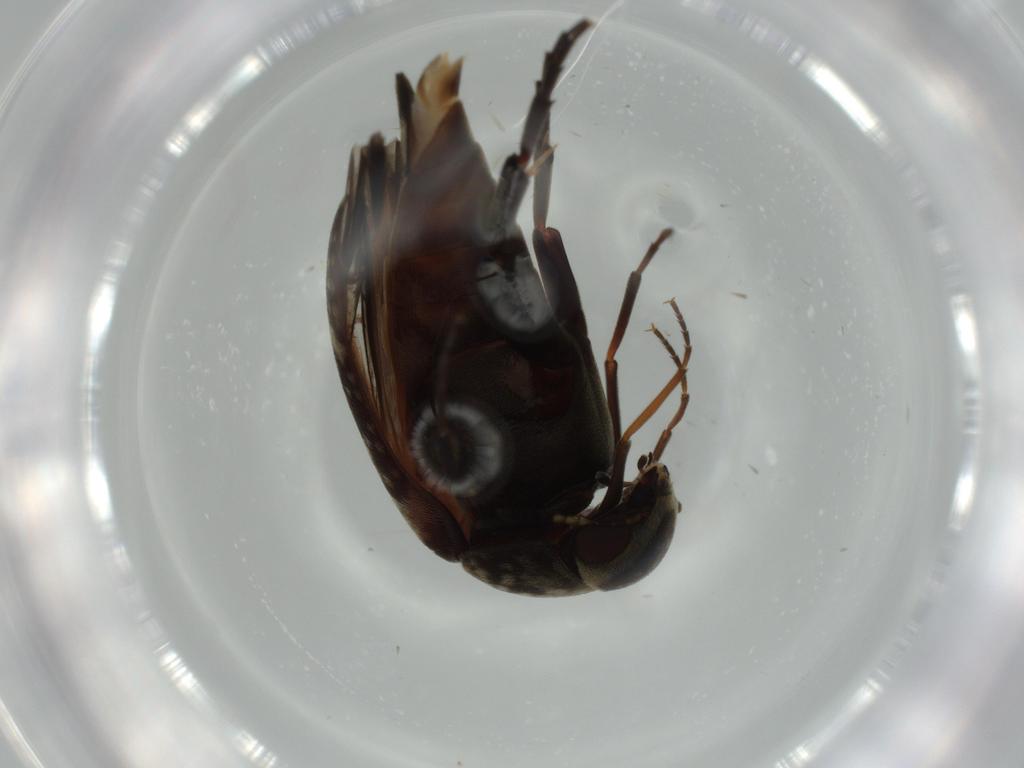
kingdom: Animalia
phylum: Arthropoda
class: Insecta
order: Coleoptera
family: Chrysomelidae
